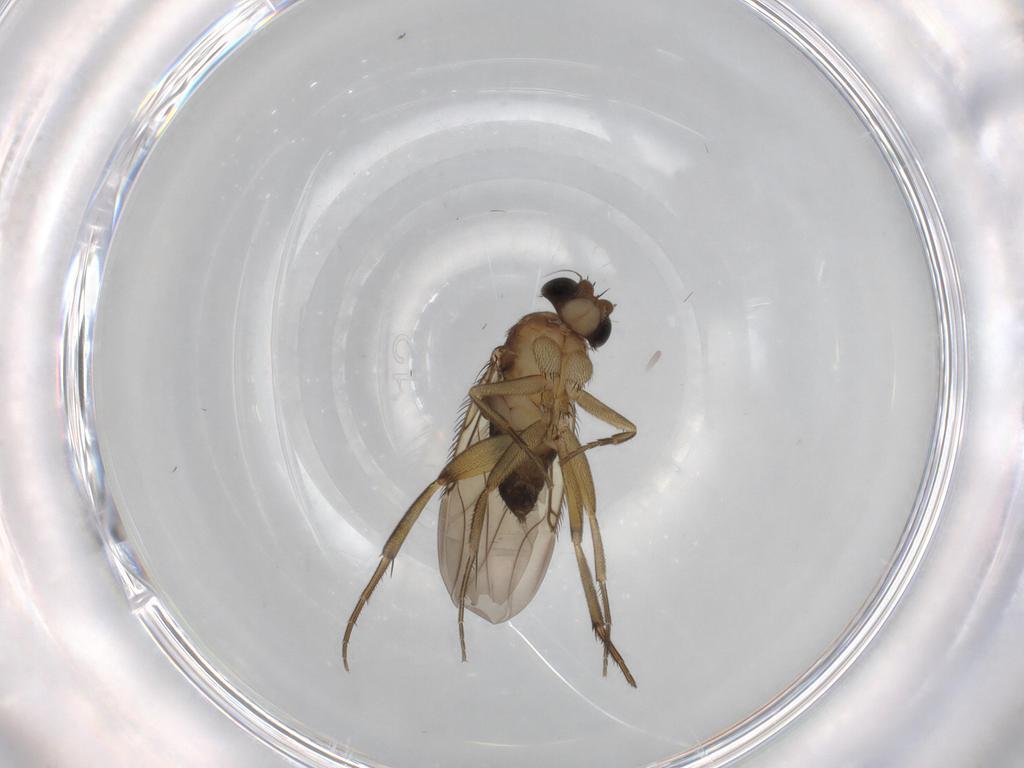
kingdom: Animalia
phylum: Arthropoda
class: Insecta
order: Diptera
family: Phoridae
